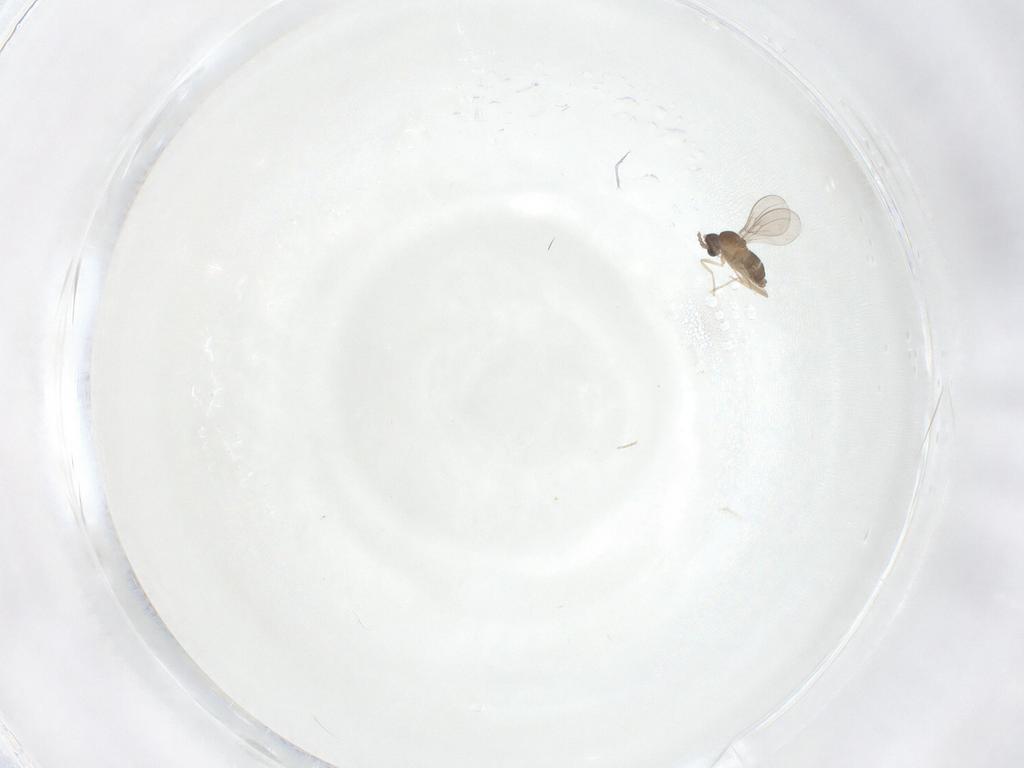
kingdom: Animalia
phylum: Arthropoda
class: Insecta
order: Diptera
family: Cecidomyiidae
